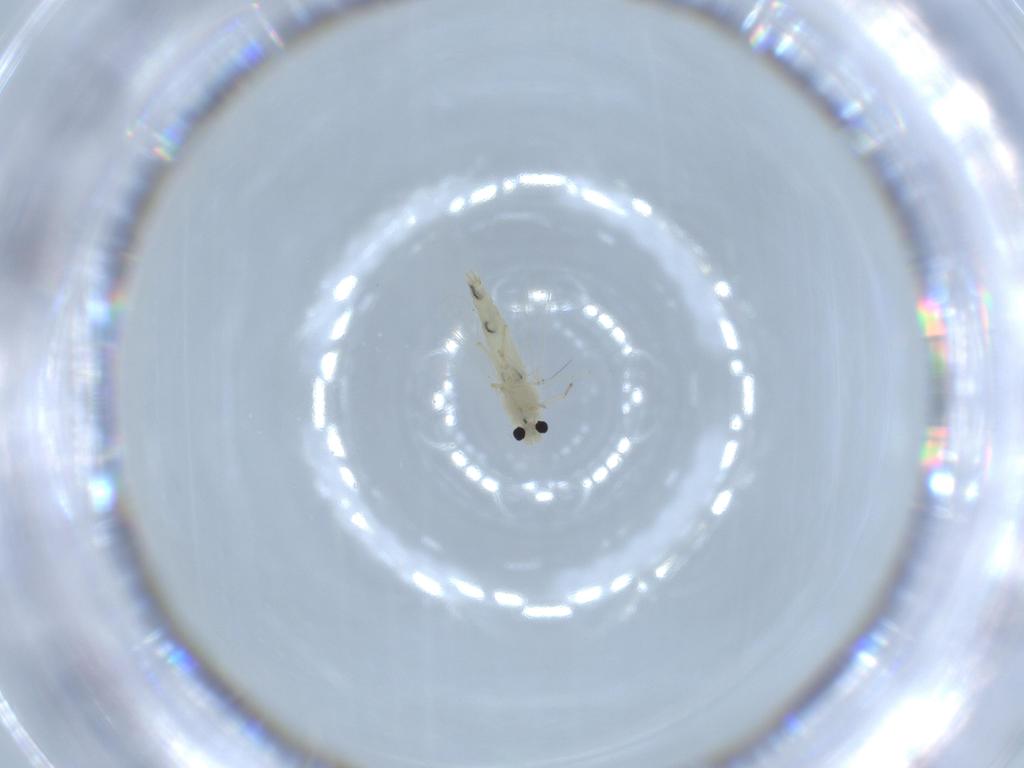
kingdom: Animalia
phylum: Arthropoda
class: Insecta
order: Diptera
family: Chironomidae
